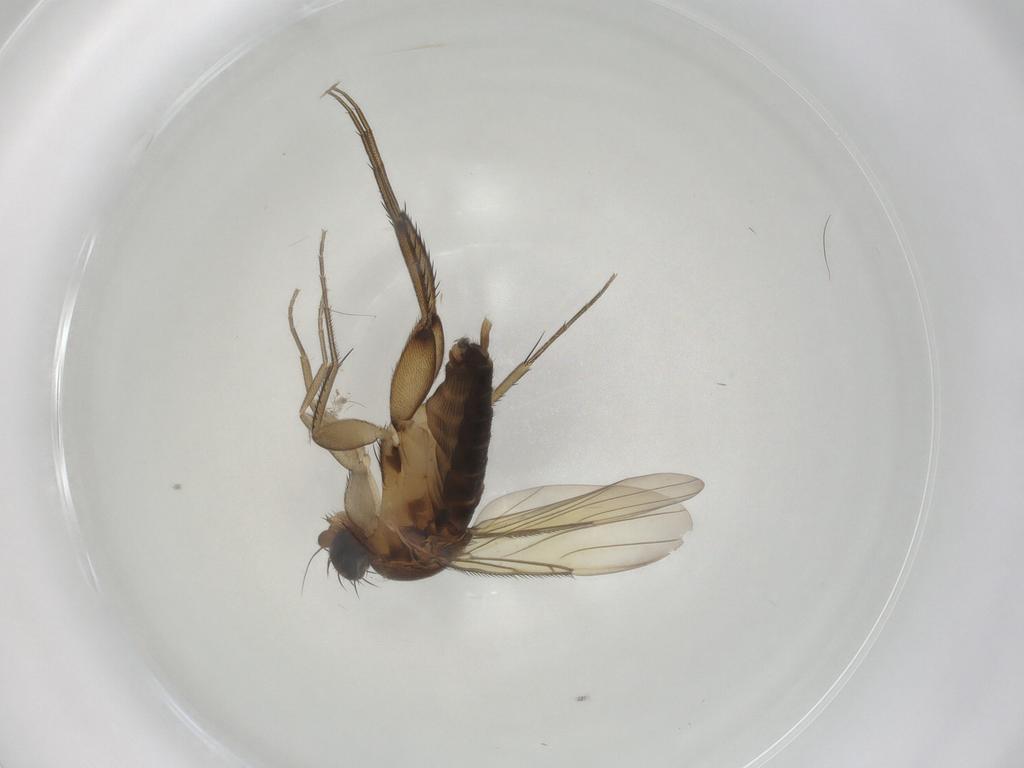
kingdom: Animalia
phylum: Arthropoda
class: Insecta
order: Diptera
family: Phoridae
